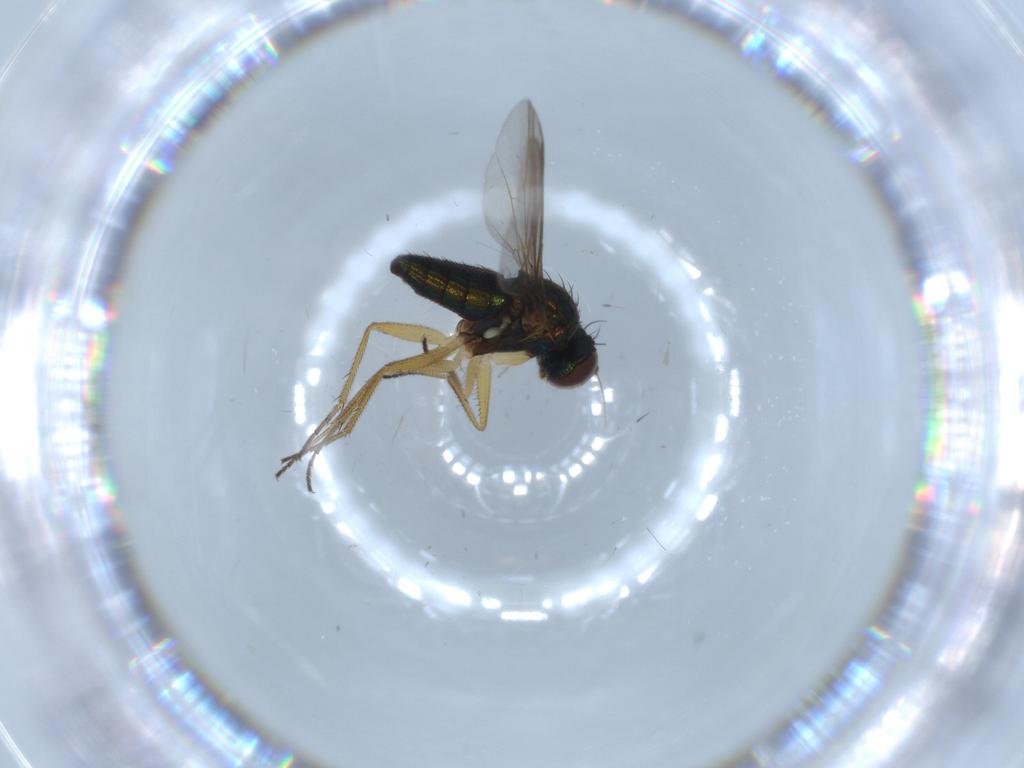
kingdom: Animalia
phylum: Arthropoda
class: Insecta
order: Diptera
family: Dolichopodidae
